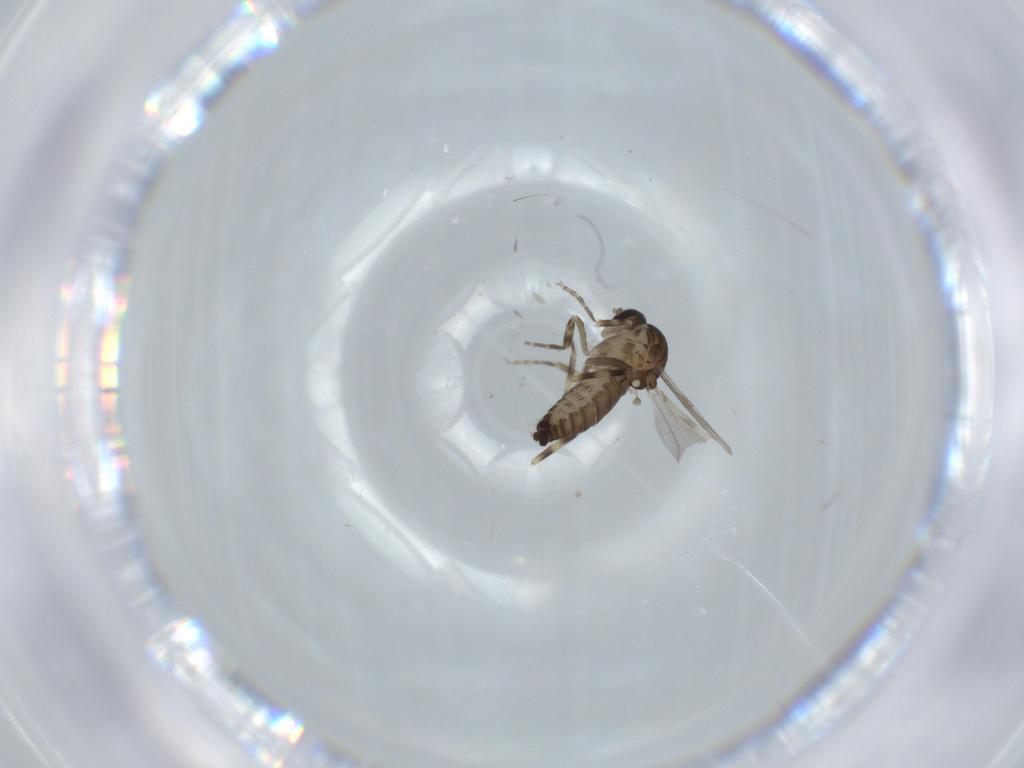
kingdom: Animalia
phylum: Arthropoda
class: Insecta
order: Diptera
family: Ceratopogonidae
